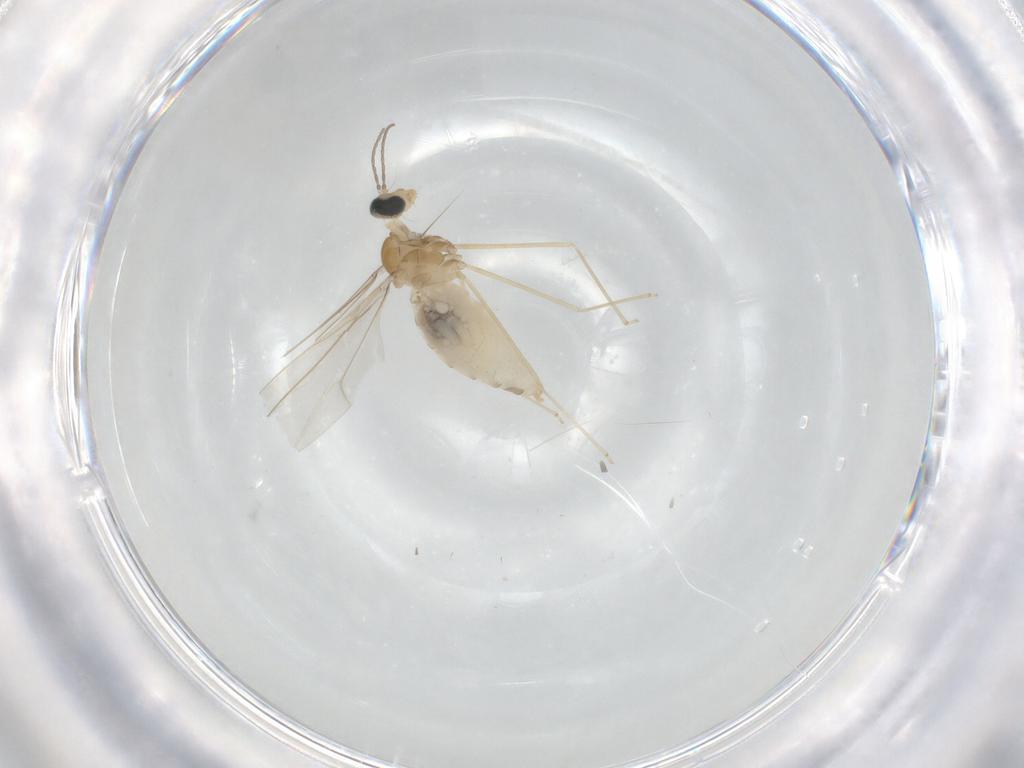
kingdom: Animalia
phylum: Arthropoda
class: Insecta
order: Diptera
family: Cecidomyiidae
